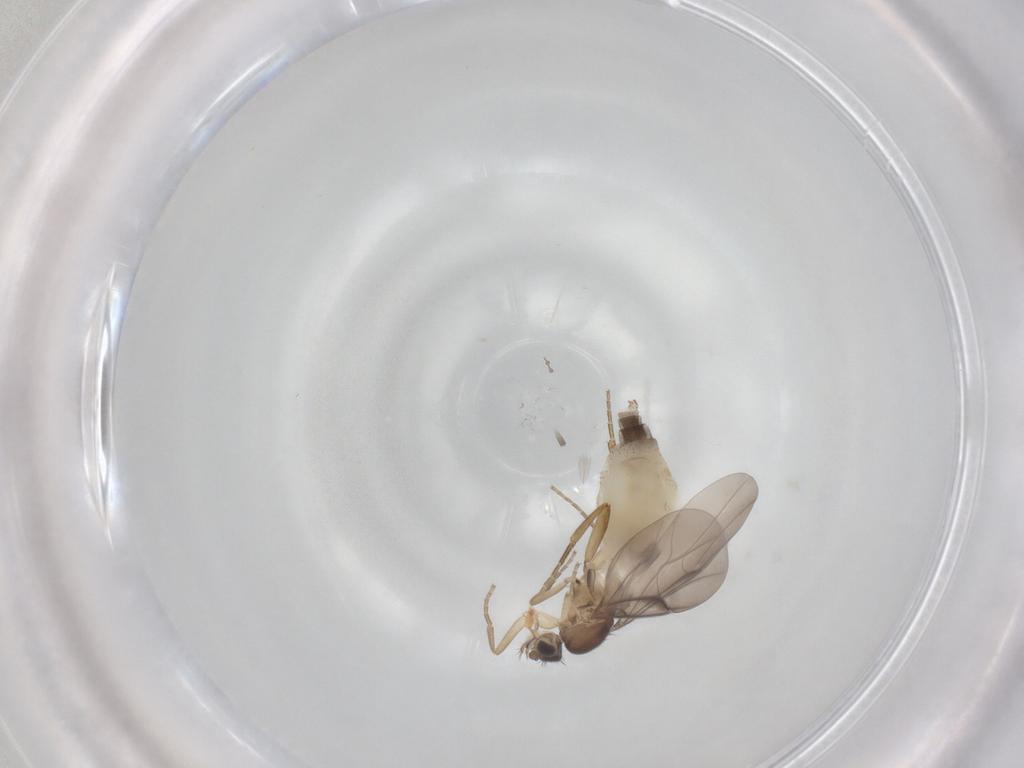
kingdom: Animalia
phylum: Arthropoda
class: Insecta
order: Diptera
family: Phoridae
